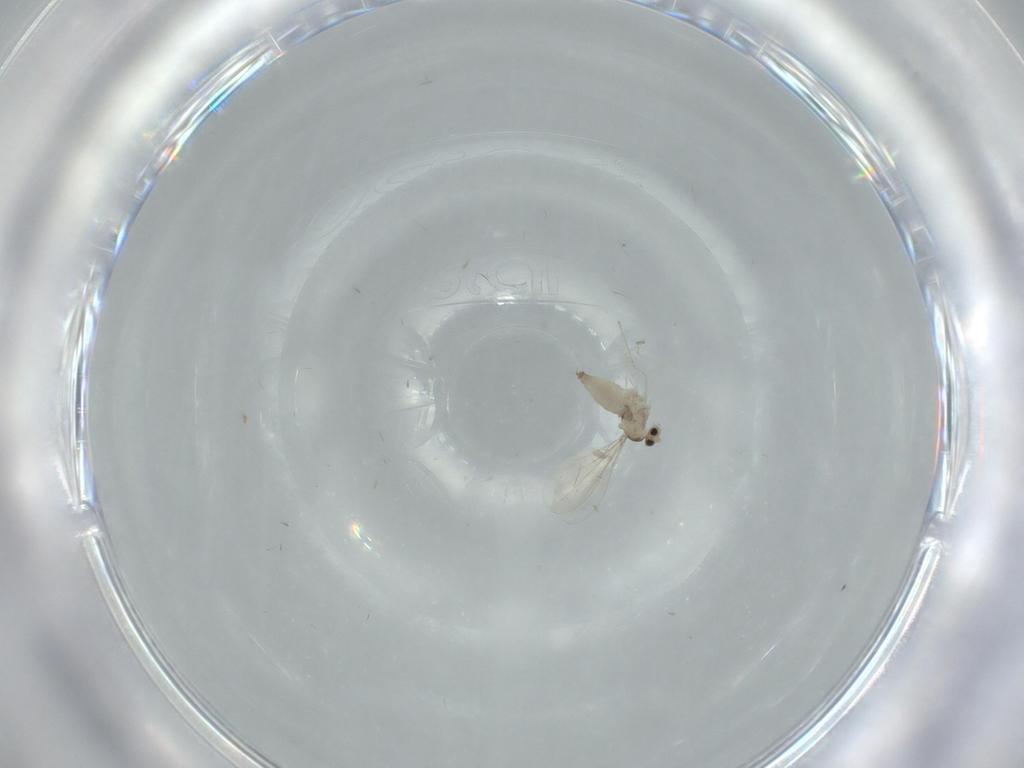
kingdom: Animalia
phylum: Arthropoda
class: Insecta
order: Diptera
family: Cecidomyiidae
